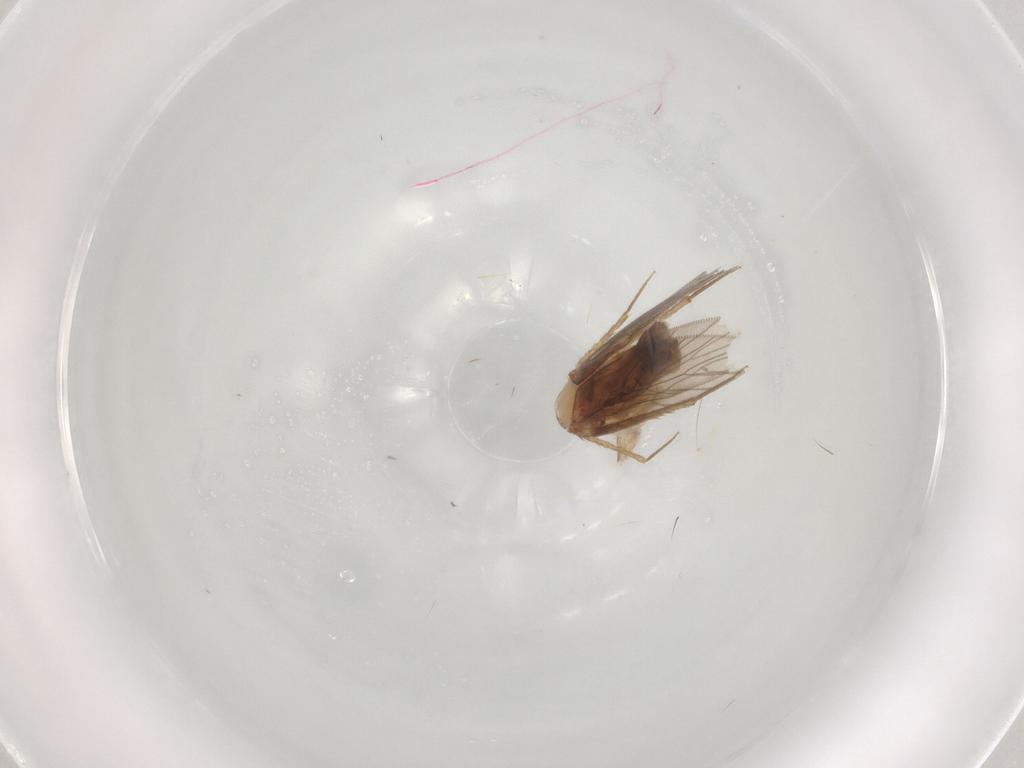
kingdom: Animalia
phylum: Arthropoda
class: Insecta
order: Psocodea
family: Lepidopsocidae
